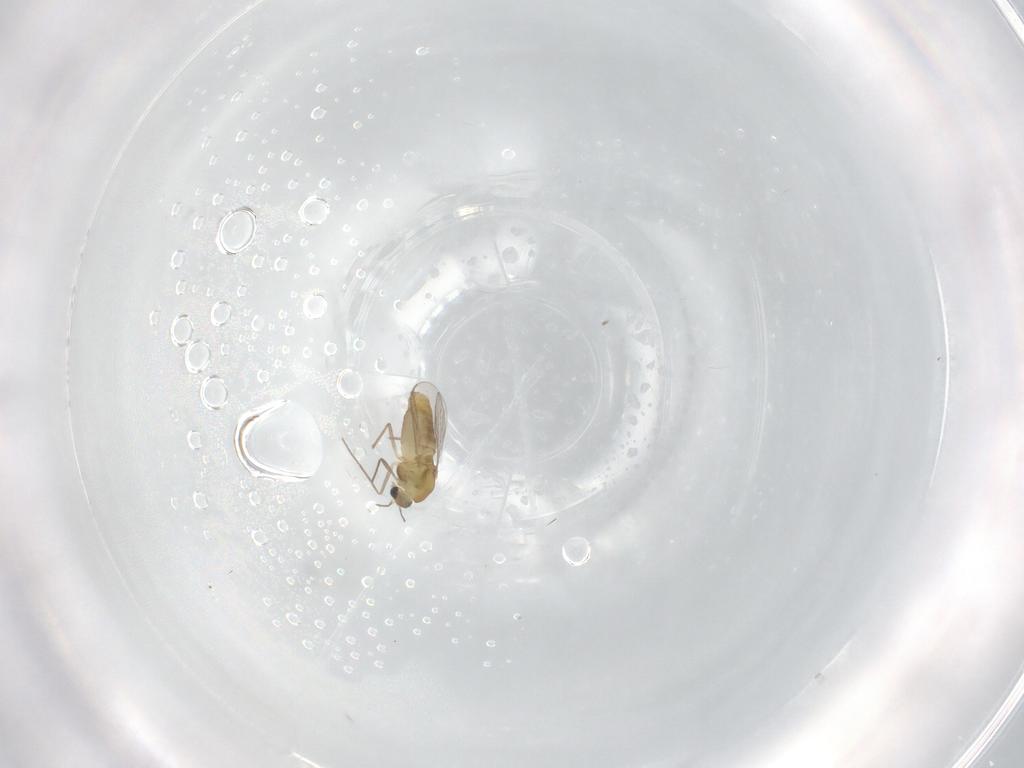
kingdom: Animalia
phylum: Arthropoda
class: Insecta
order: Diptera
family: Chironomidae
